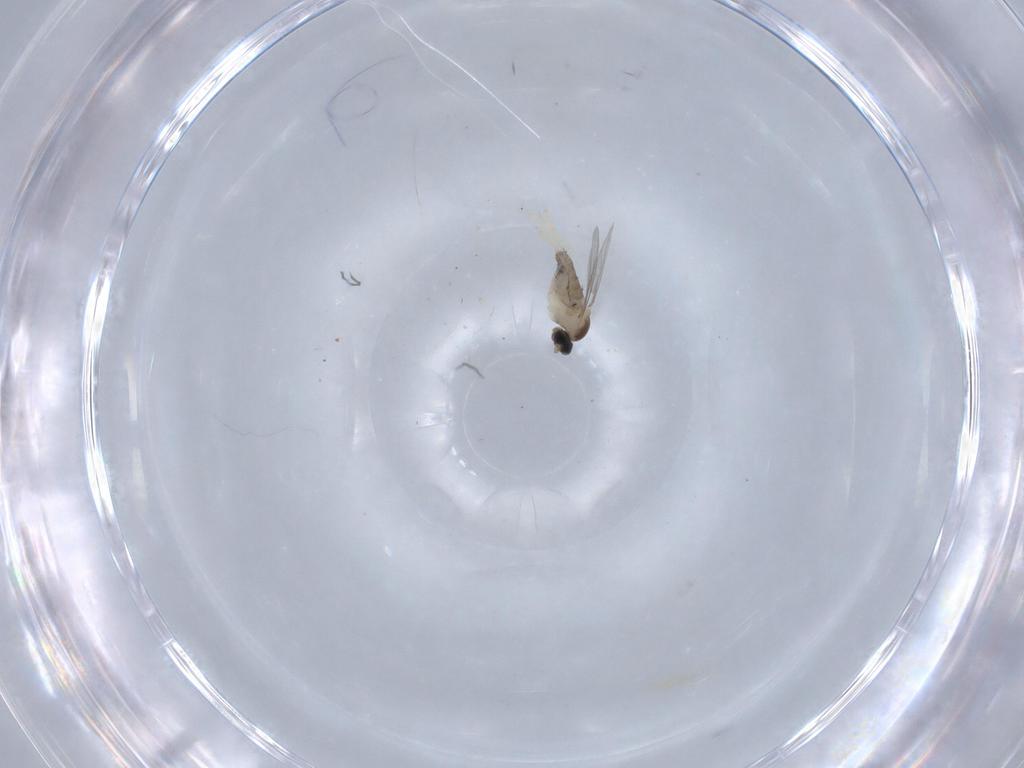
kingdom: Animalia
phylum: Arthropoda
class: Insecta
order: Diptera
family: Cecidomyiidae
